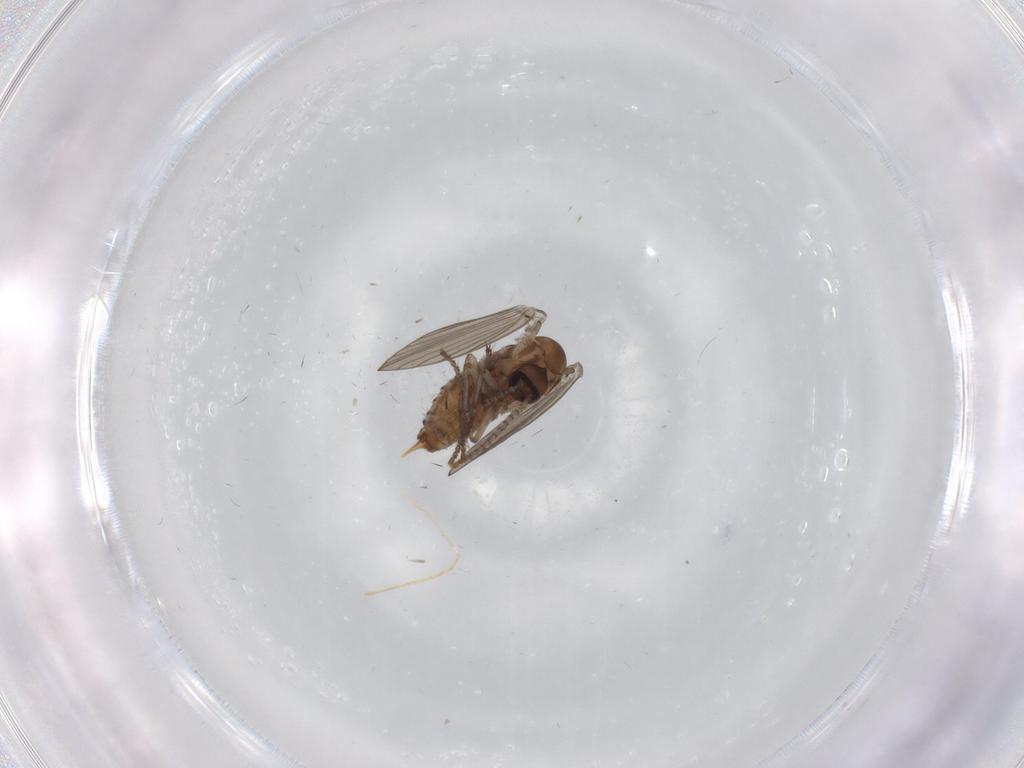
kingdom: Animalia
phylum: Arthropoda
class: Insecta
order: Diptera
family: Psychodidae
